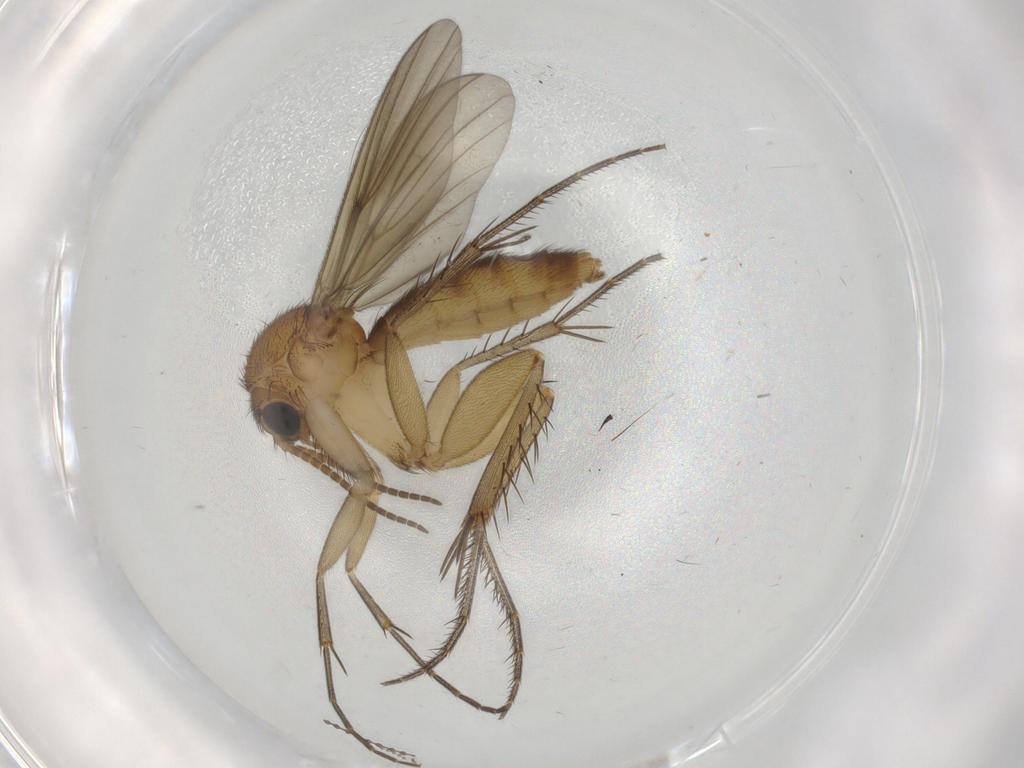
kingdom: Animalia
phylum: Arthropoda
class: Insecta
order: Diptera
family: Mycetophilidae
